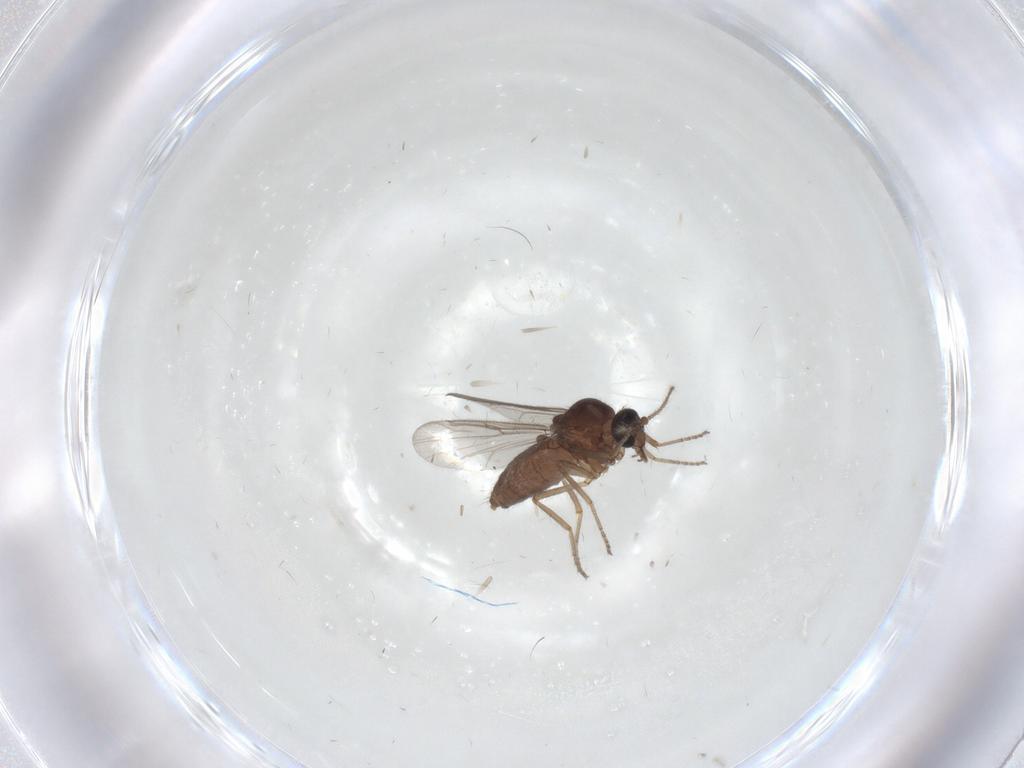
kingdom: Animalia
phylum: Arthropoda
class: Insecta
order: Diptera
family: Ceratopogonidae
